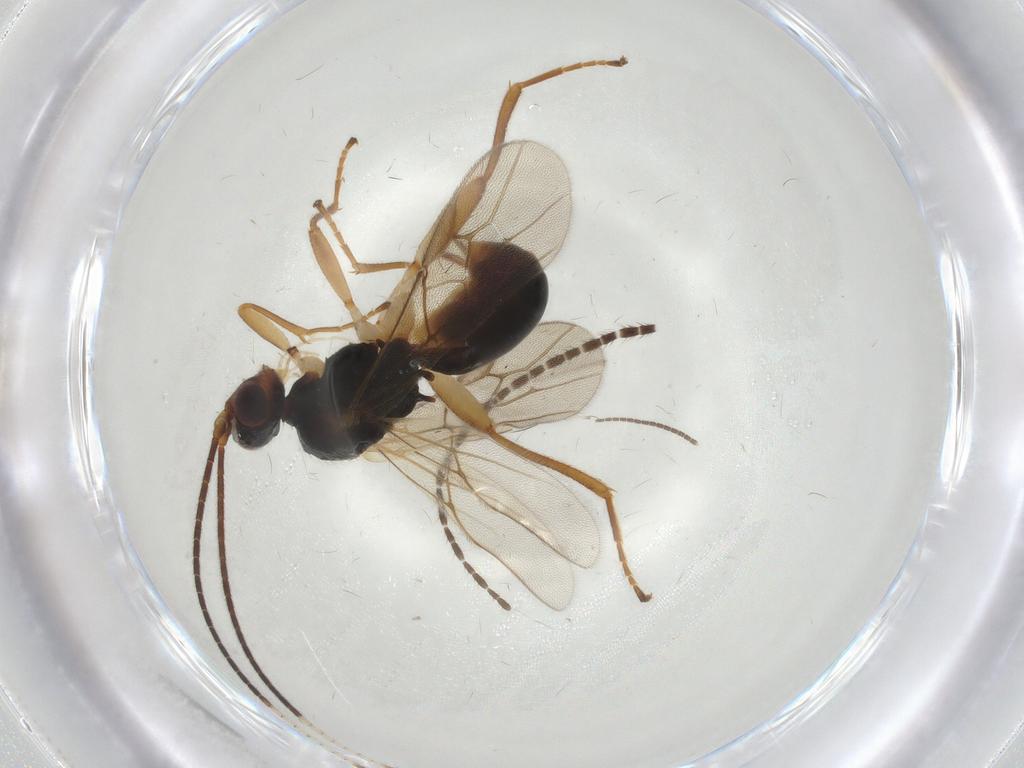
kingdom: Animalia
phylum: Arthropoda
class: Insecta
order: Hymenoptera
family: Braconidae
